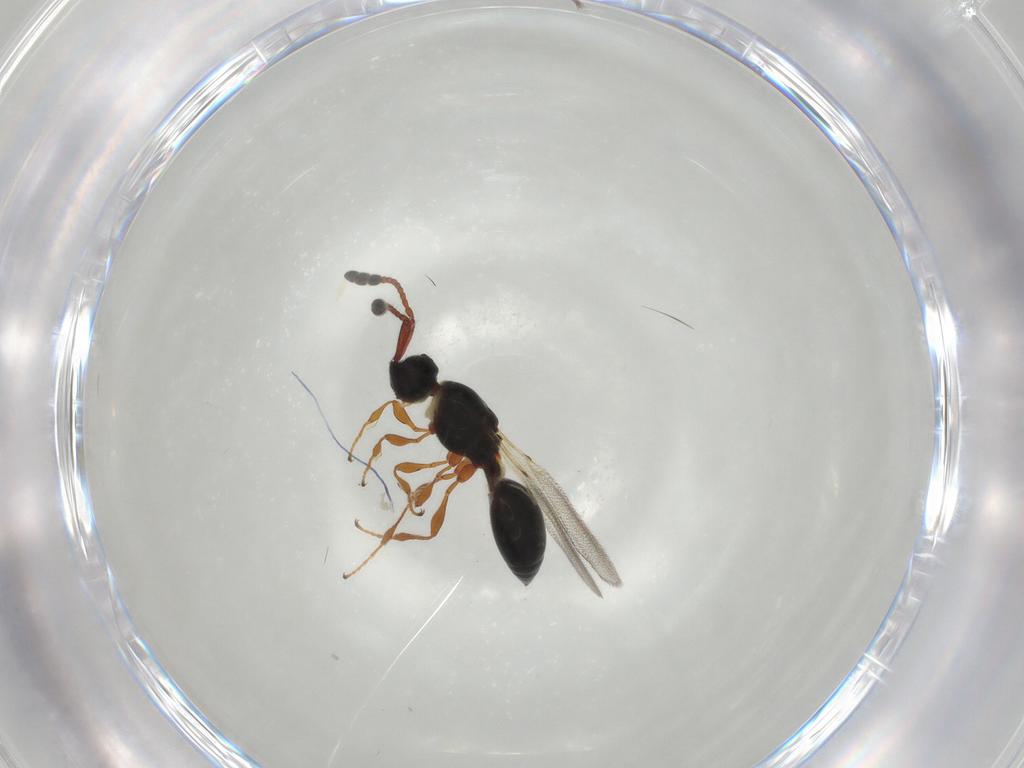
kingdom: Animalia
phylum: Arthropoda
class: Insecta
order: Hymenoptera
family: Diapriidae
